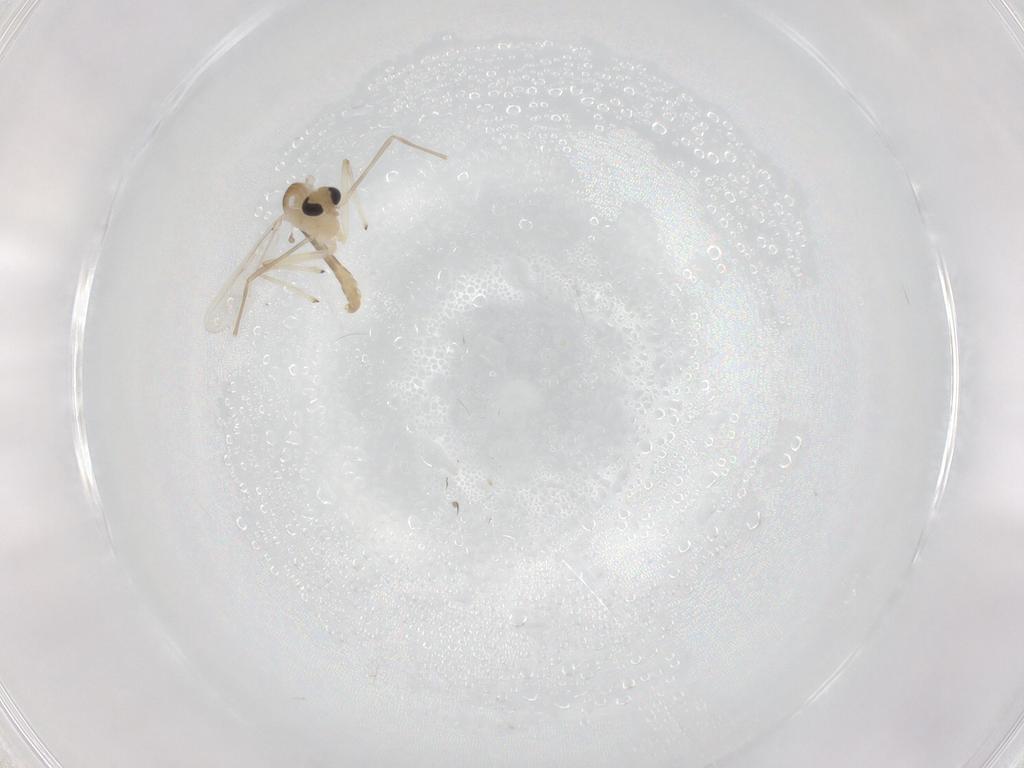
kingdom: Animalia
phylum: Arthropoda
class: Insecta
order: Diptera
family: Chironomidae
